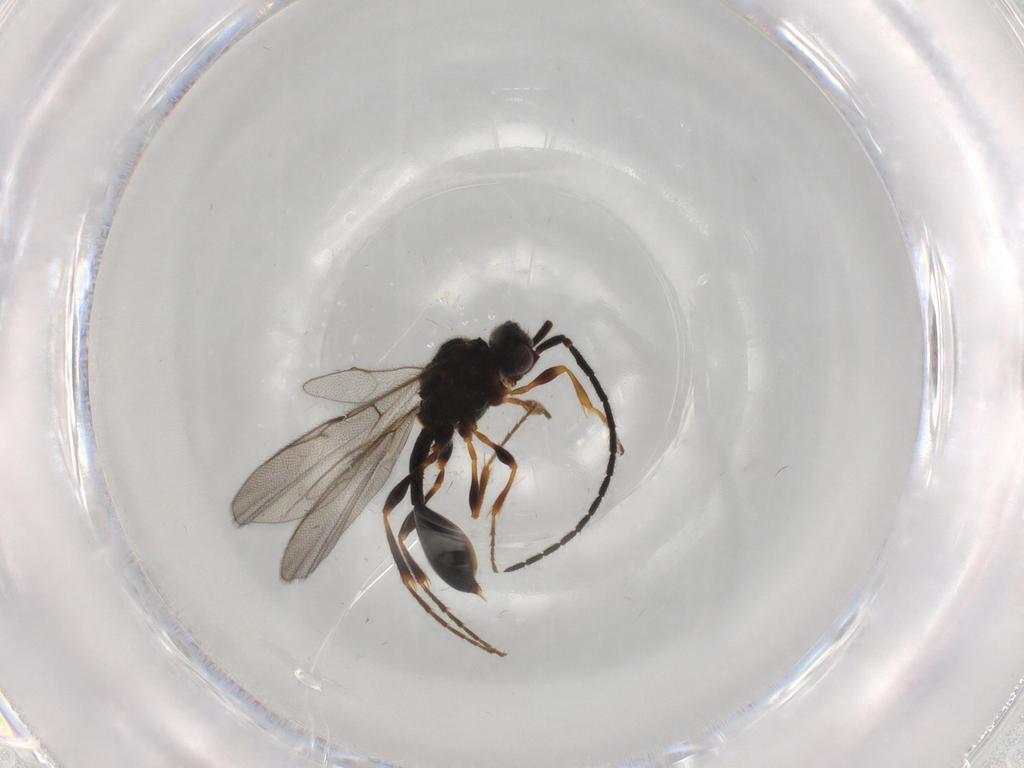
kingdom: Animalia
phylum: Arthropoda
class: Insecta
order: Hymenoptera
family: Diapriidae
